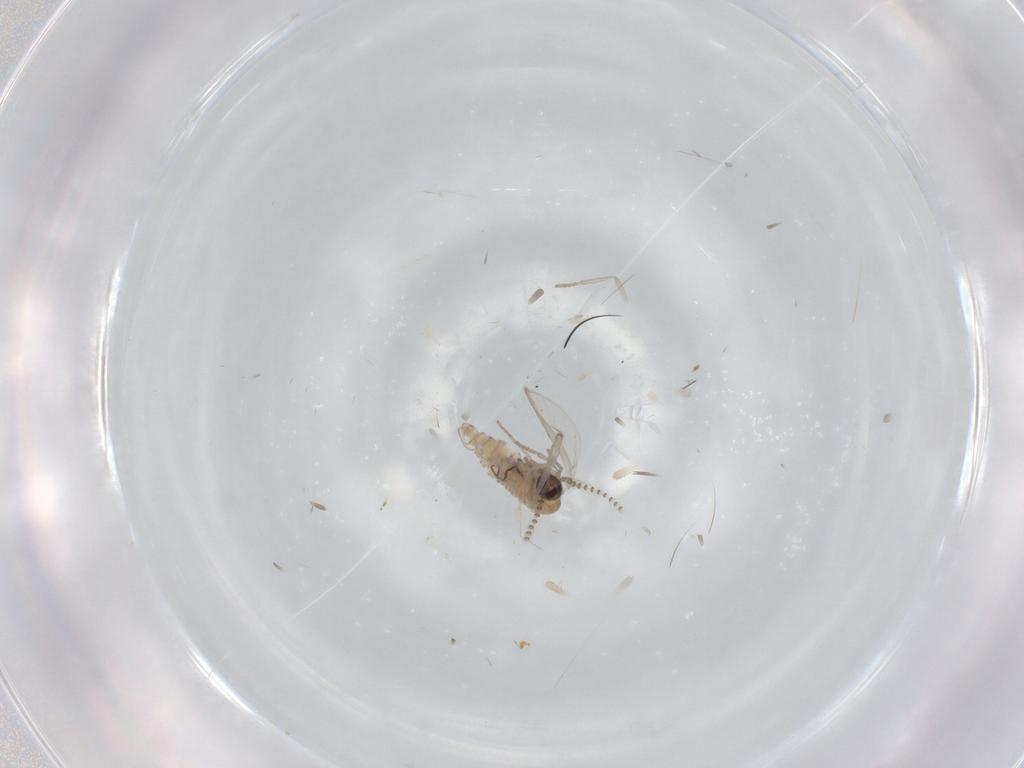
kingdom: Animalia
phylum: Arthropoda
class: Insecta
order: Diptera
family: Psychodidae
